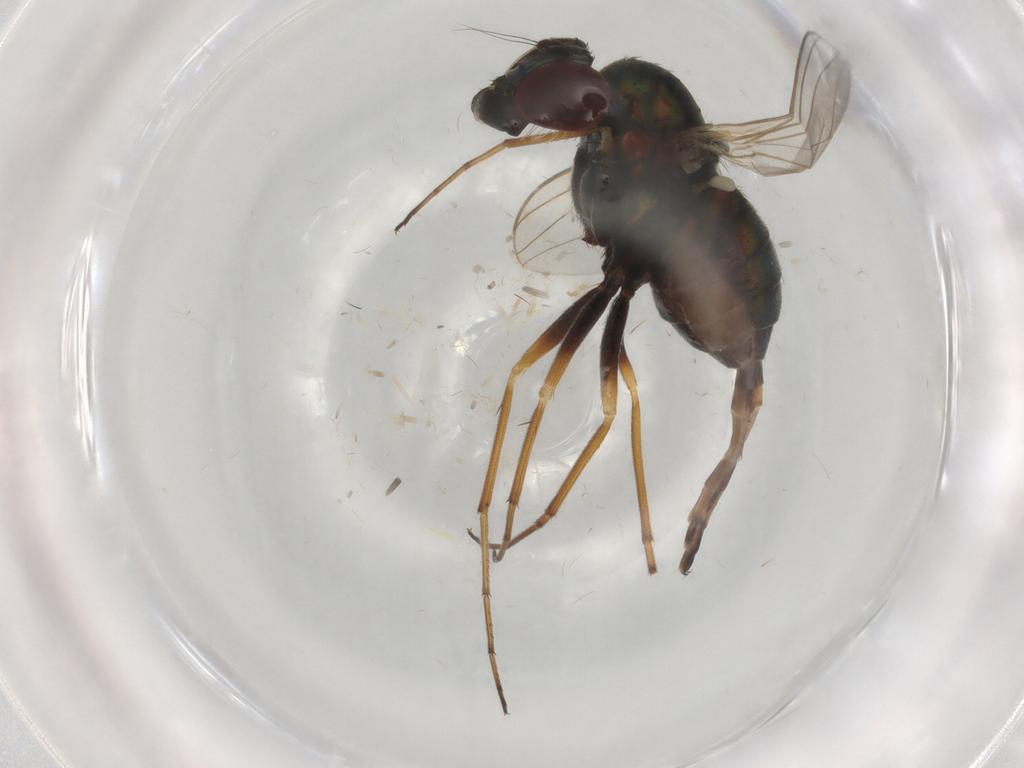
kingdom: Animalia
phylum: Arthropoda
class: Insecta
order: Diptera
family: Dolichopodidae
